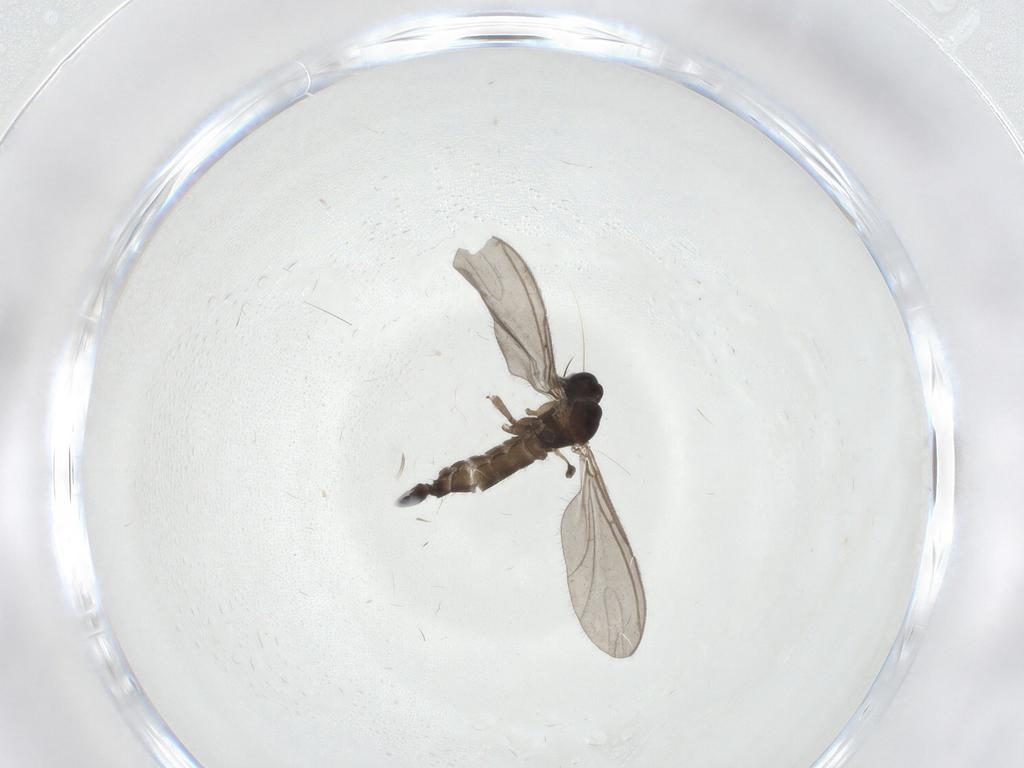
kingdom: Animalia
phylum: Arthropoda
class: Insecta
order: Diptera
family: Sciaridae
